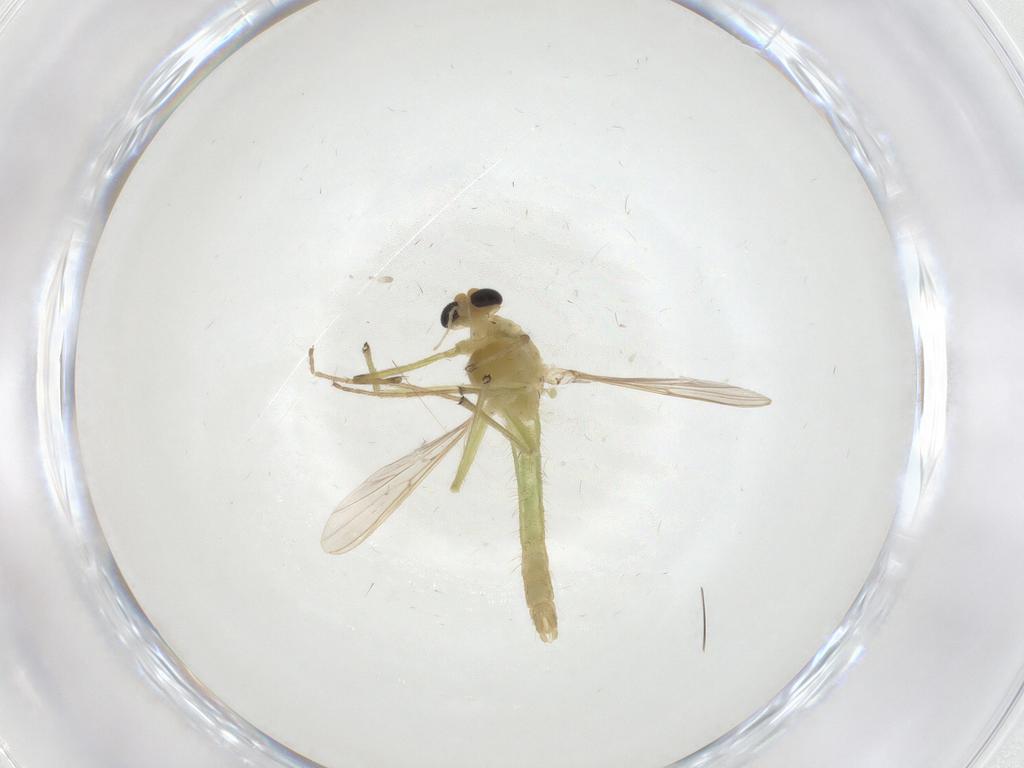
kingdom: Animalia
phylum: Arthropoda
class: Insecta
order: Diptera
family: Chironomidae
